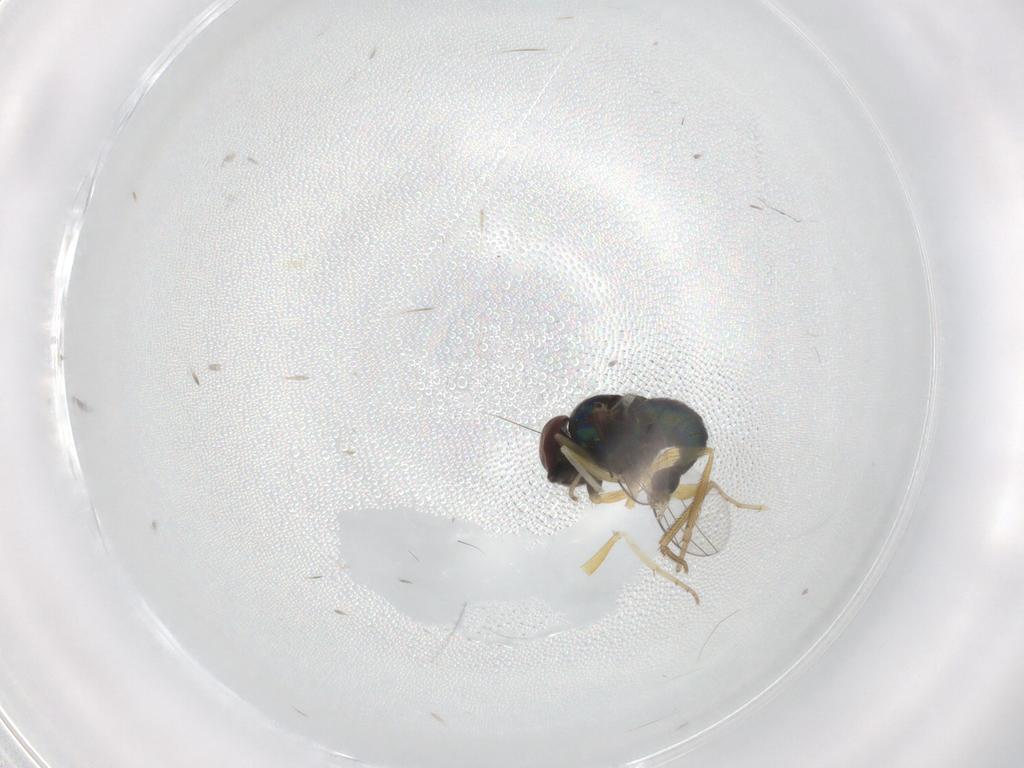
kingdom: Animalia
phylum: Arthropoda
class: Insecta
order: Diptera
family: Dolichopodidae
